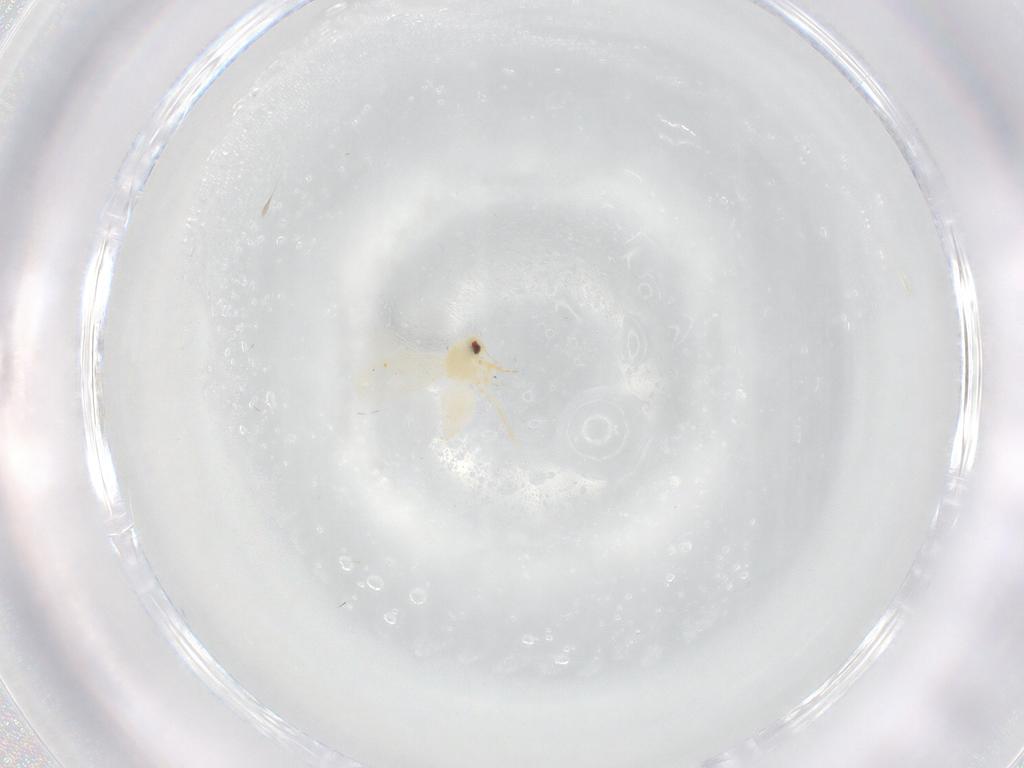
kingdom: Animalia
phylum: Arthropoda
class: Insecta
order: Hemiptera
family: Aleyrodidae
